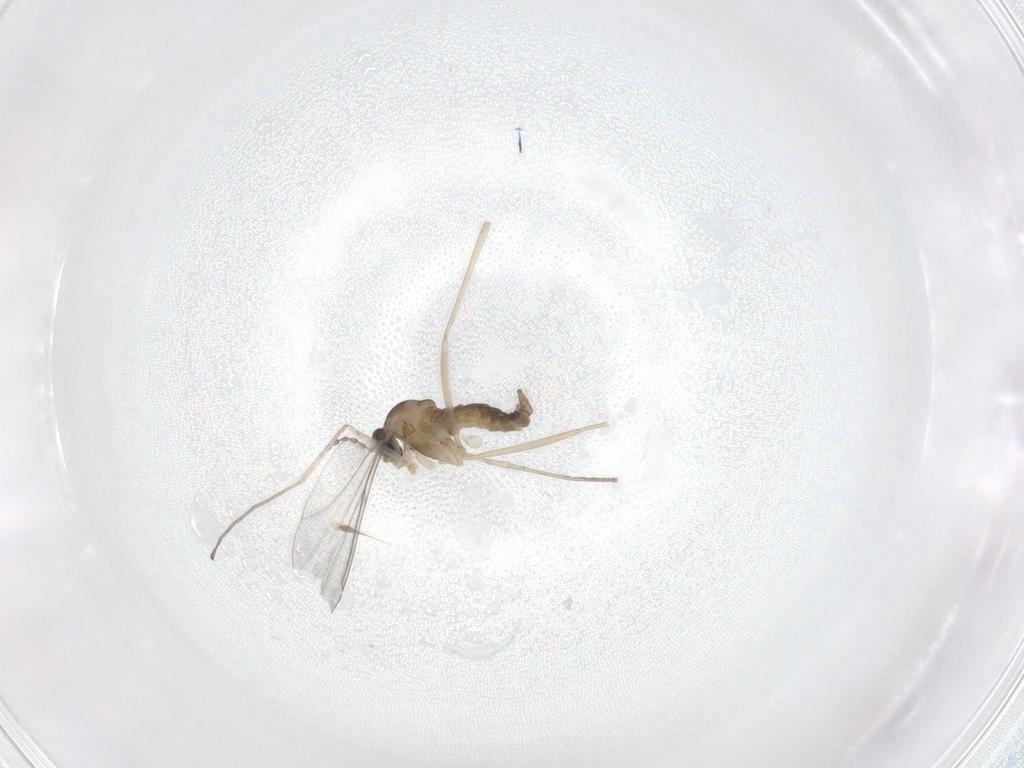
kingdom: Animalia
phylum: Arthropoda
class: Insecta
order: Diptera
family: Cecidomyiidae
